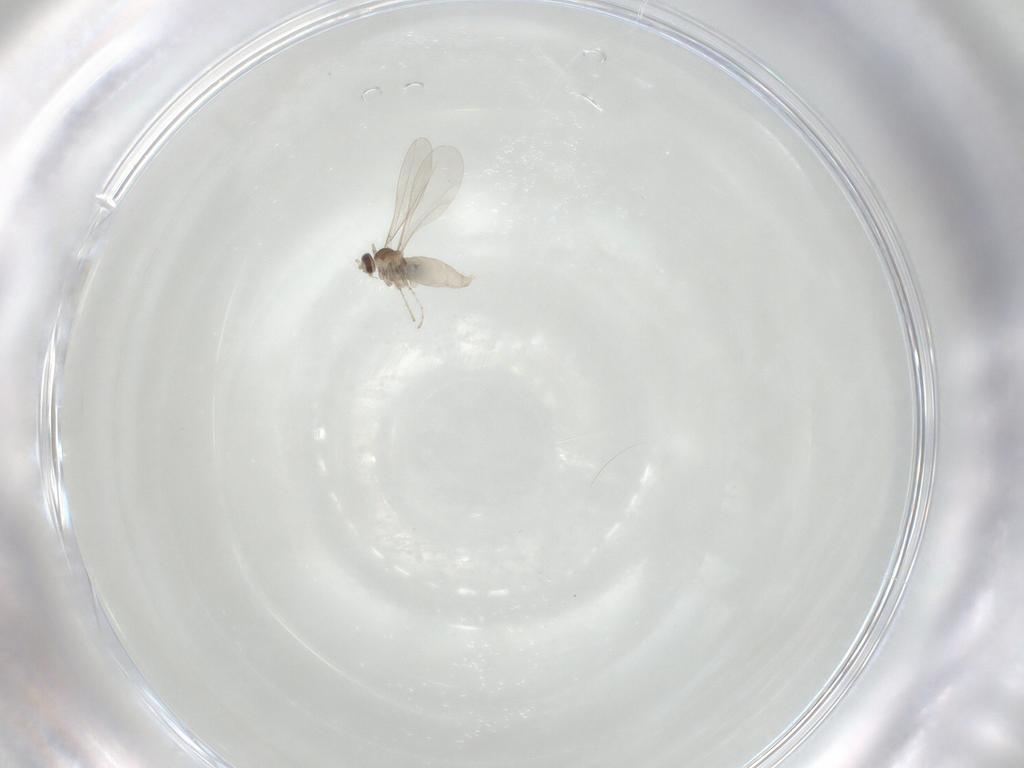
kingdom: Animalia
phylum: Arthropoda
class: Insecta
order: Diptera
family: Cecidomyiidae
